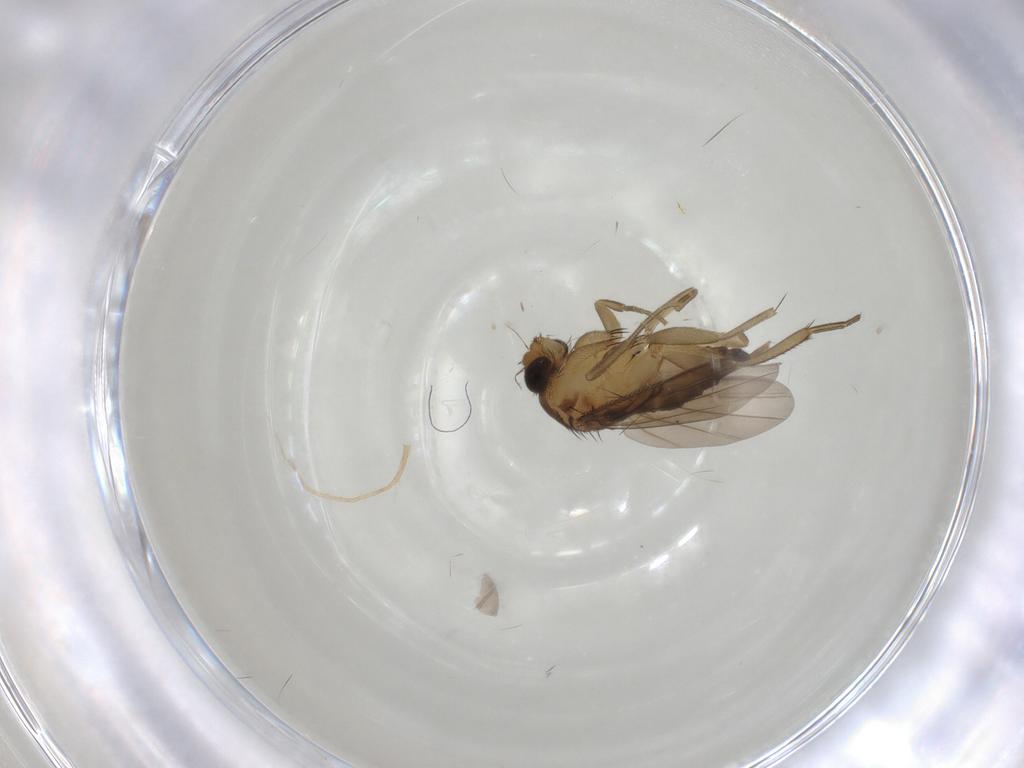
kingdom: Animalia
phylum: Arthropoda
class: Insecta
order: Diptera
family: Phoridae
